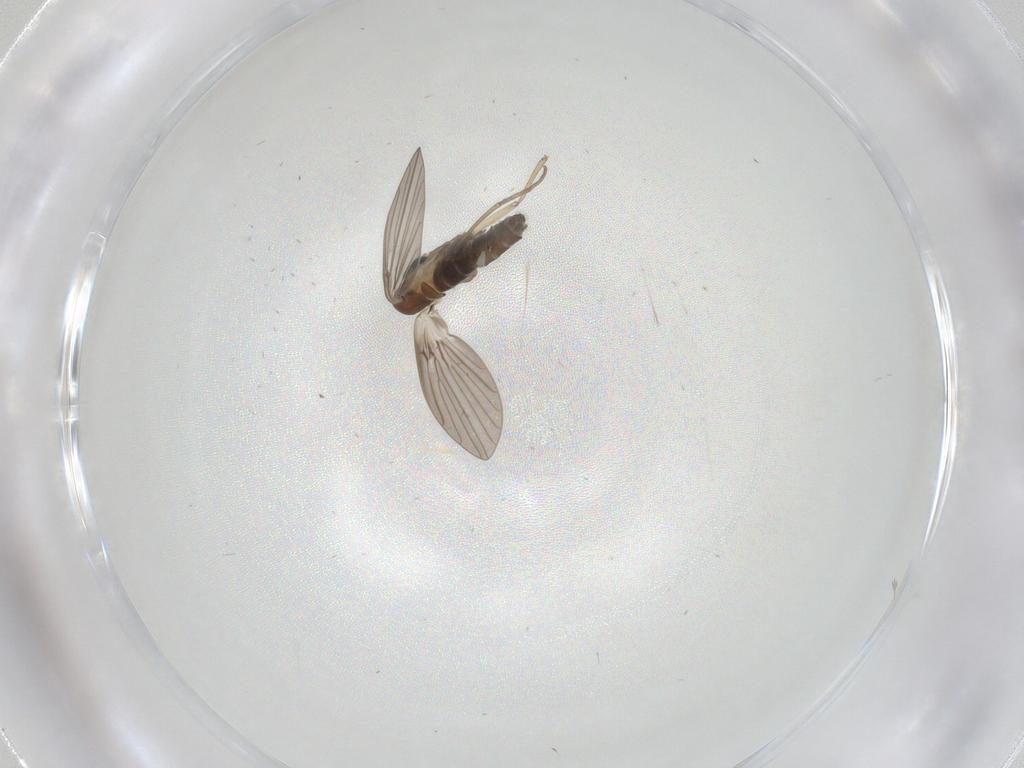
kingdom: Animalia
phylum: Arthropoda
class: Insecta
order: Diptera
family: Psychodidae
